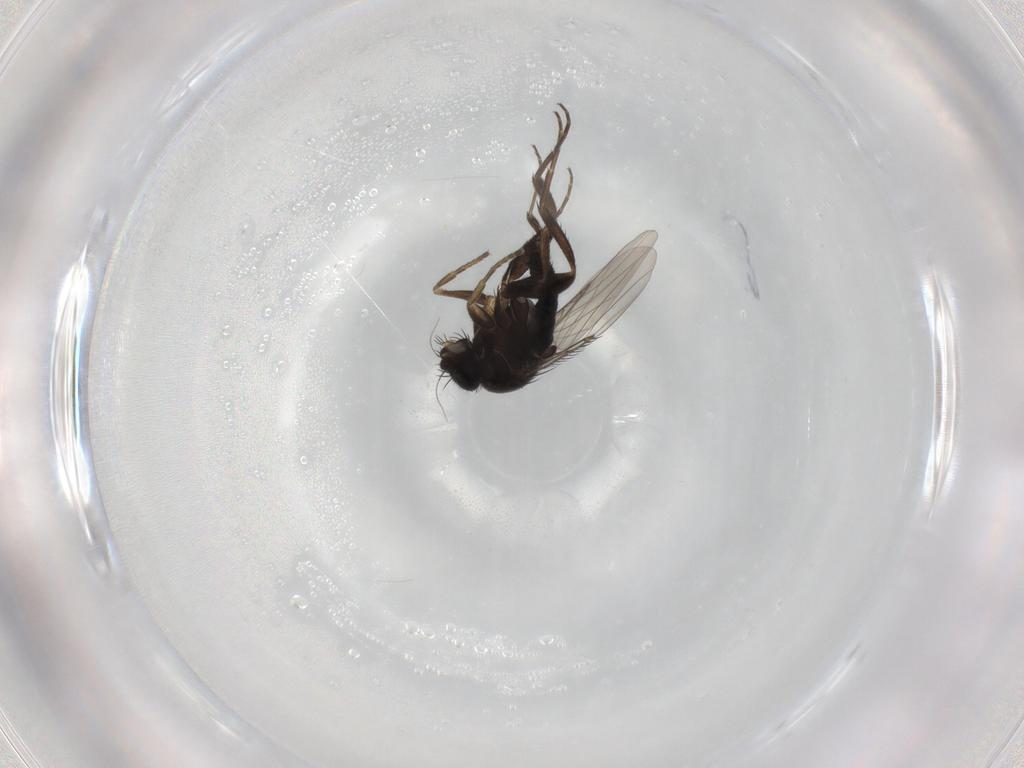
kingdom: Animalia
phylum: Arthropoda
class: Insecta
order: Diptera
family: Phoridae
